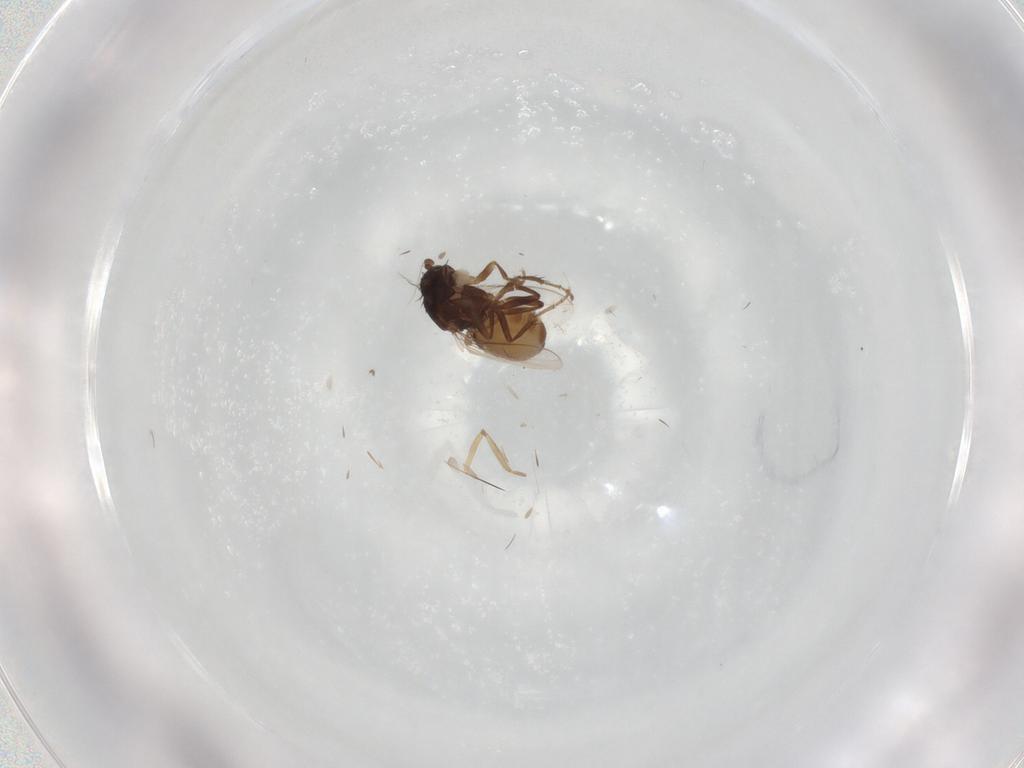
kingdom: Animalia
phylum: Arthropoda
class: Insecta
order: Diptera
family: Sphaeroceridae
